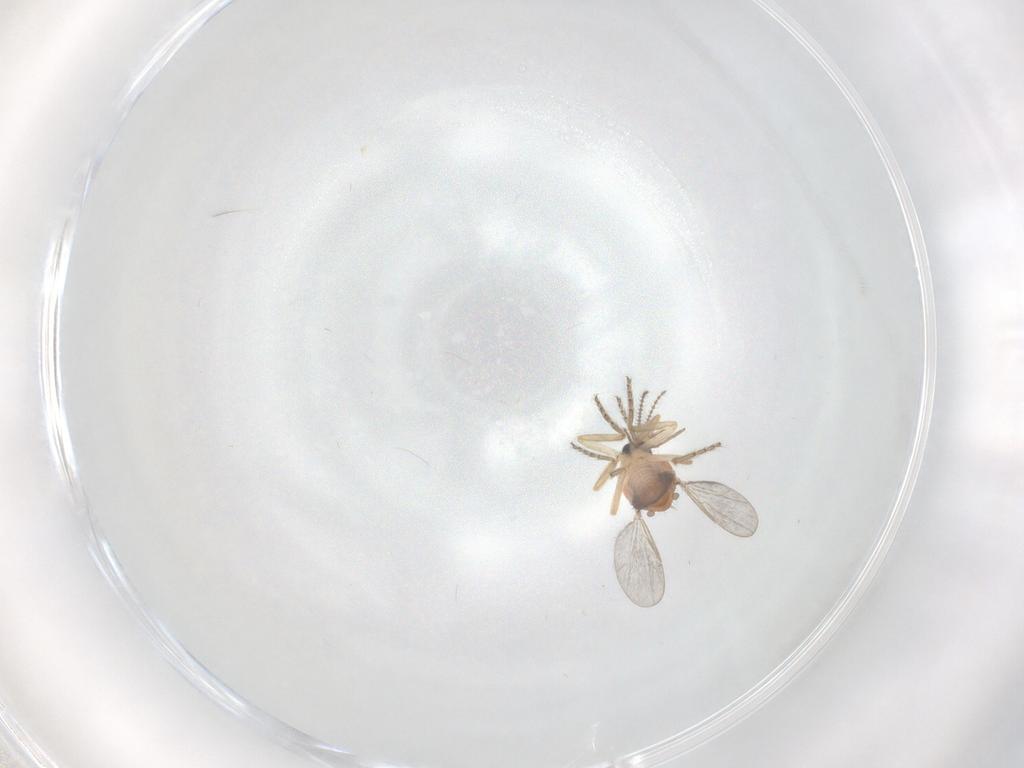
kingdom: Animalia
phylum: Arthropoda
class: Insecta
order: Diptera
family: Ceratopogonidae
